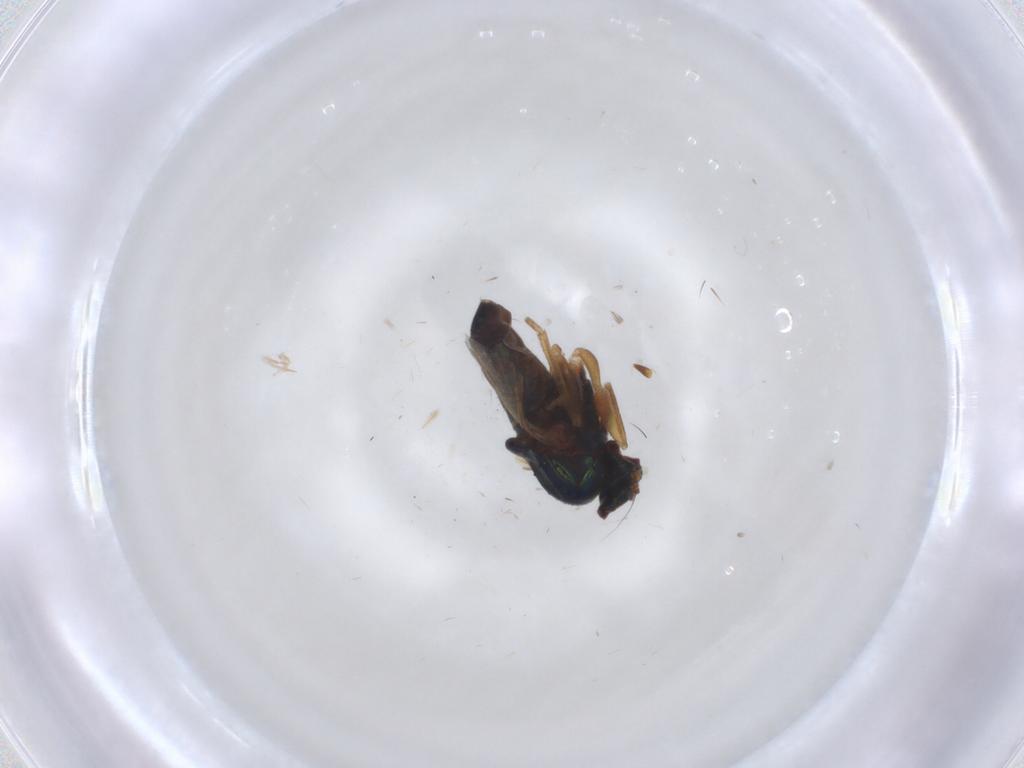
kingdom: Animalia
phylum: Arthropoda
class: Insecta
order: Diptera
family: Dolichopodidae
